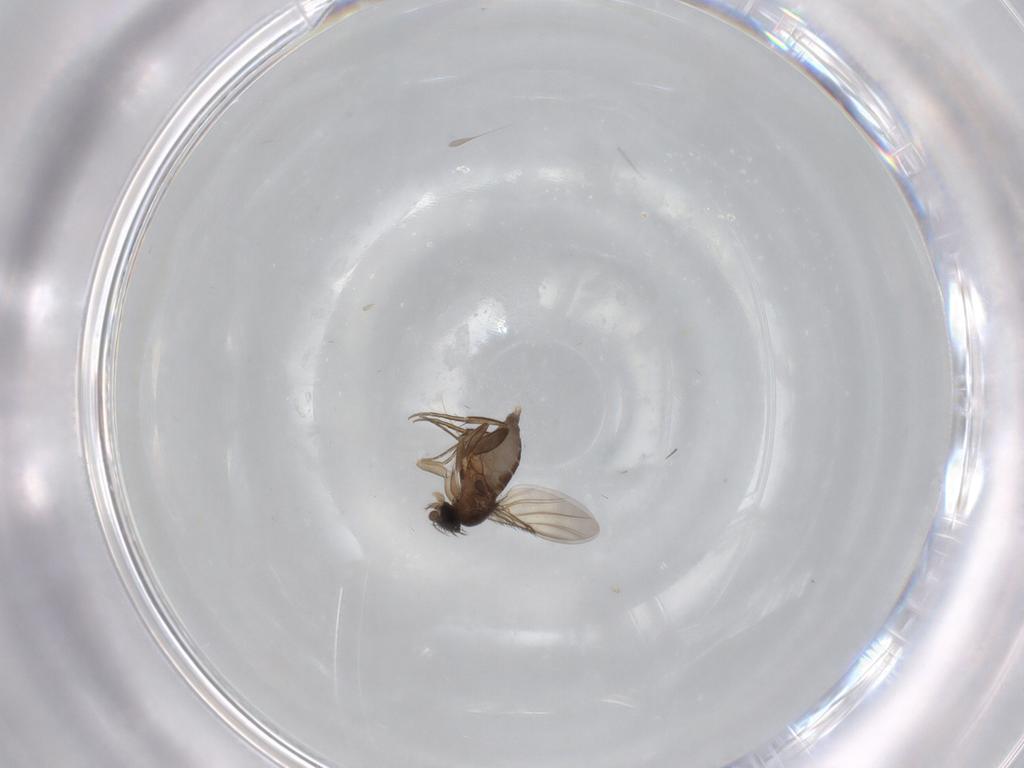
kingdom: Animalia
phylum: Arthropoda
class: Insecta
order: Diptera
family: Phoridae
